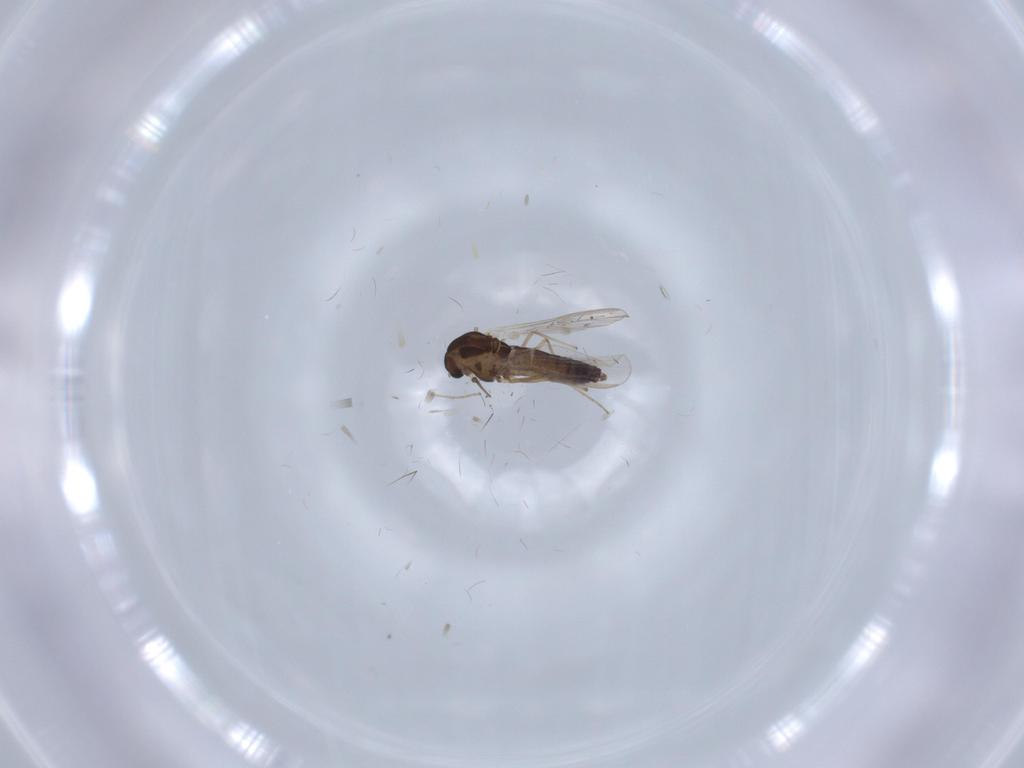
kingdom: Animalia
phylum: Arthropoda
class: Insecta
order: Diptera
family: Chironomidae
